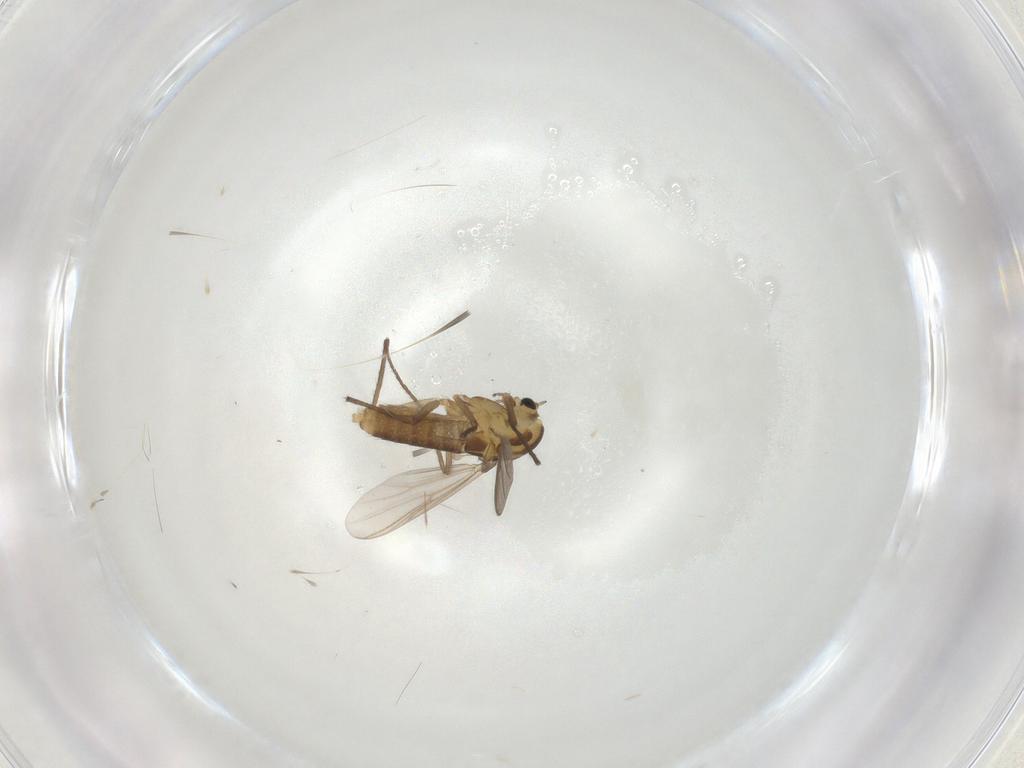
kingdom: Animalia
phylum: Arthropoda
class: Insecta
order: Diptera
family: Chironomidae
